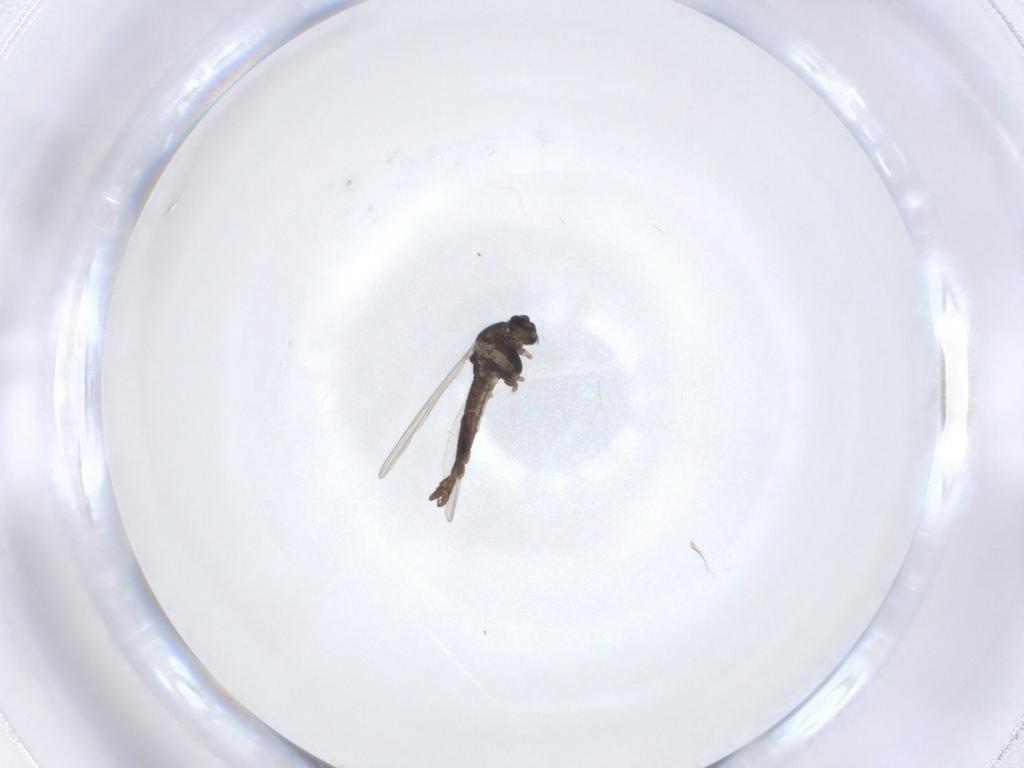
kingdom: Animalia
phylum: Arthropoda
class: Insecta
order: Diptera
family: Chironomidae
